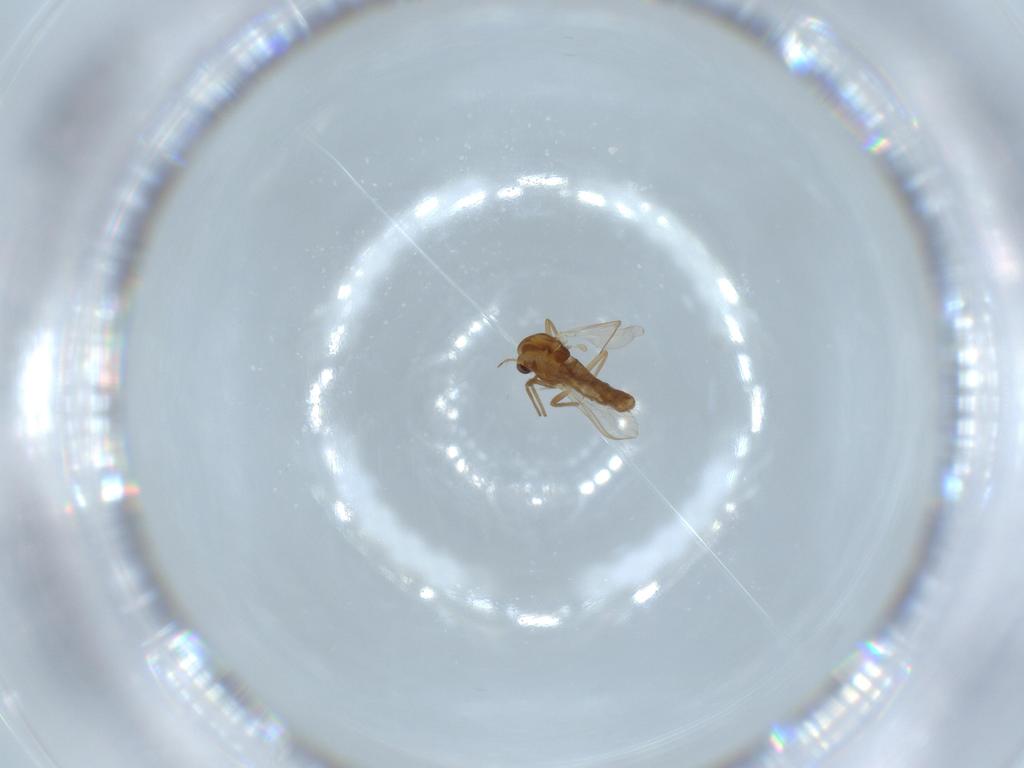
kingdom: Animalia
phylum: Arthropoda
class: Insecta
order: Diptera
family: Chironomidae
